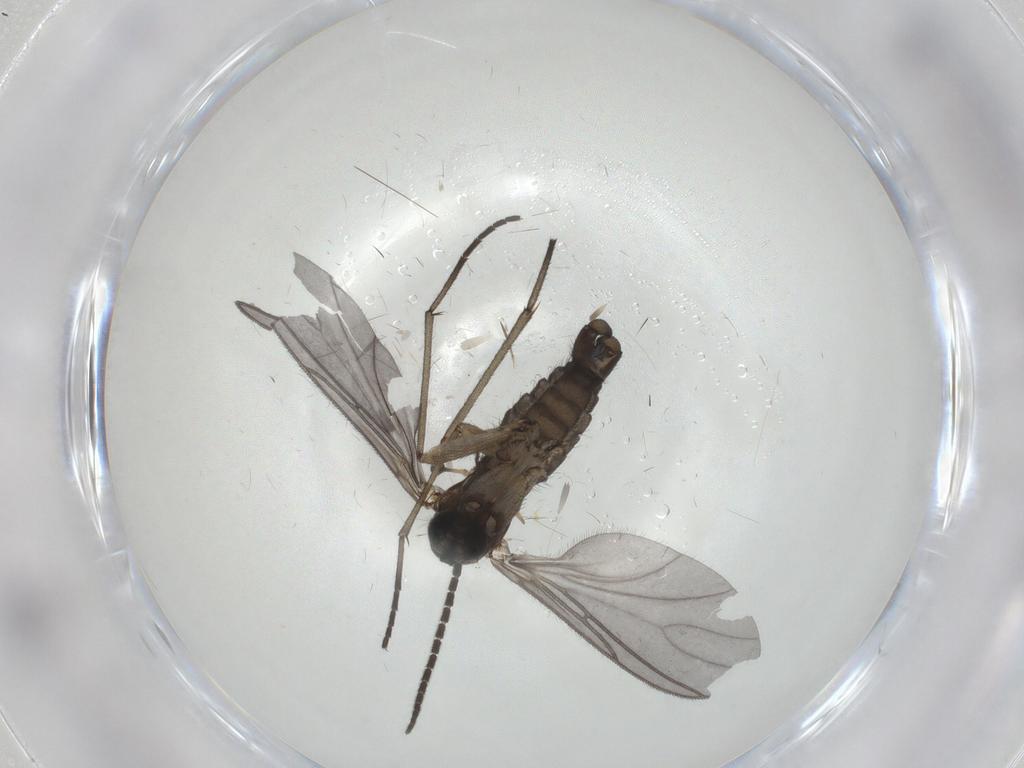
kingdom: Animalia
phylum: Arthropoda
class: Insecta
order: Diptera
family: Sciaridae
